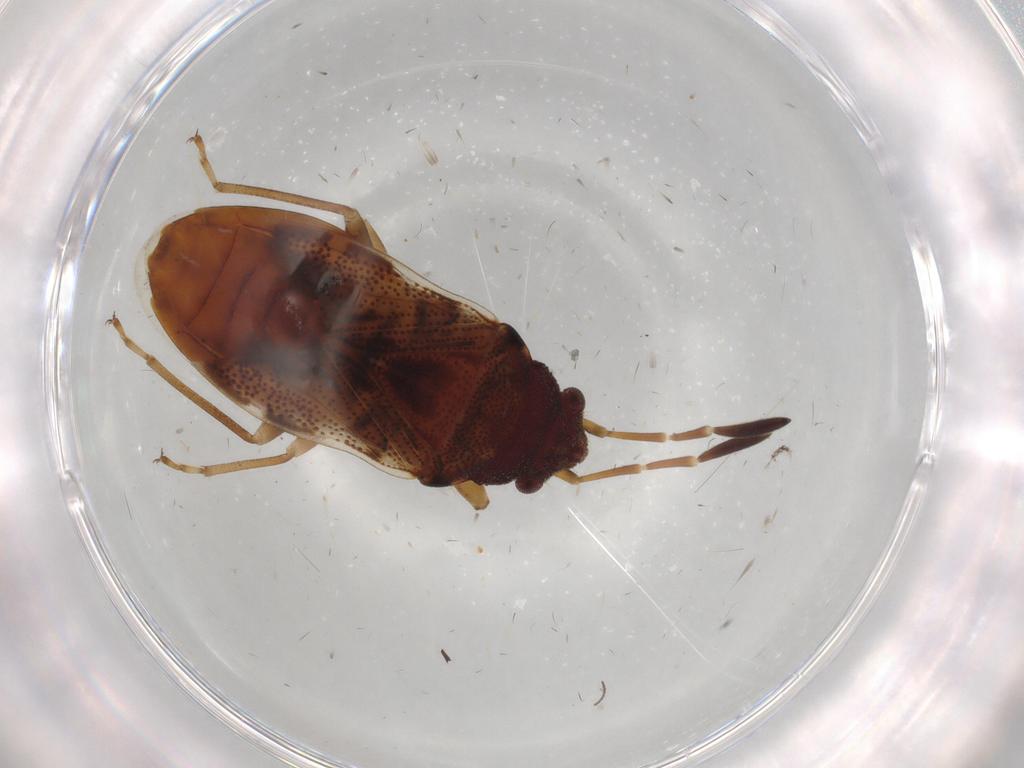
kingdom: Animalia
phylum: Arthropoda
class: Insecta
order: Hemiptera
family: Rhyparochromidae
